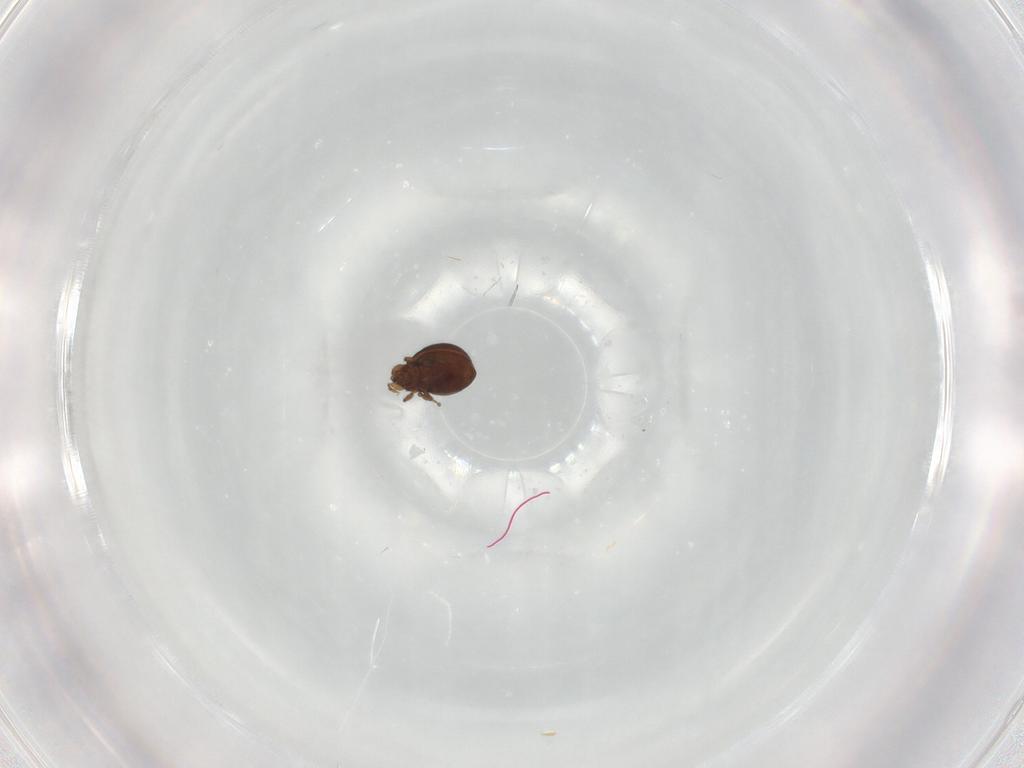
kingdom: Animalia
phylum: Arthropoda
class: Arachnida
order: Sarcoptiformes
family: Oribatulidae
